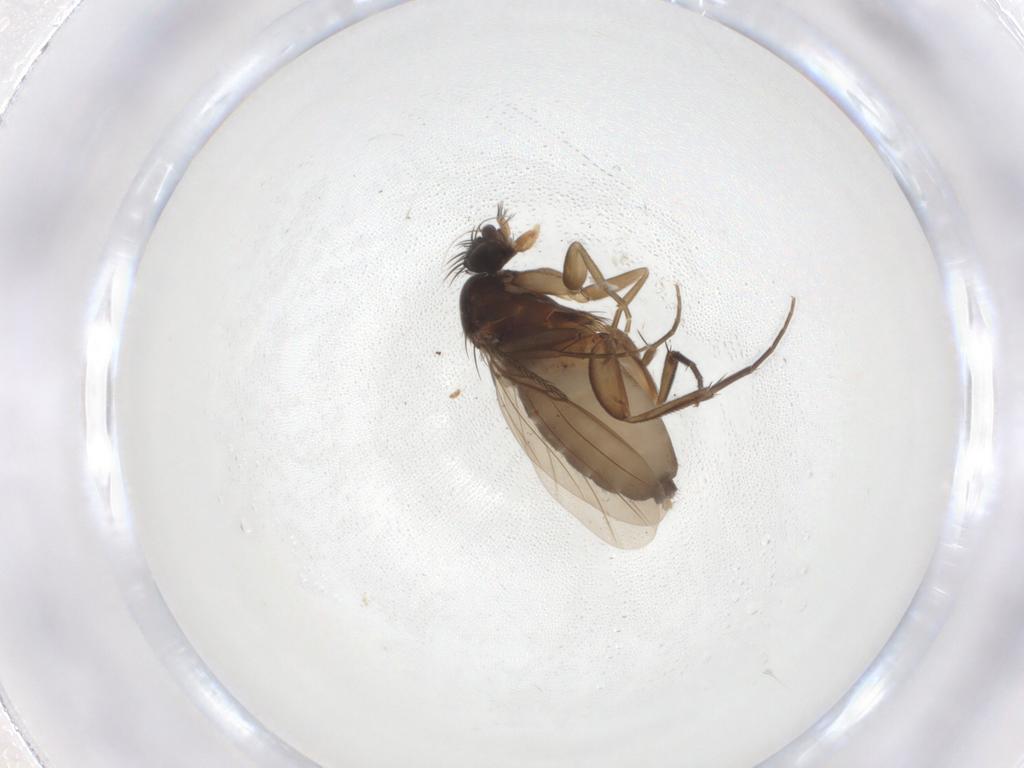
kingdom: Animalia
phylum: Arthropoda
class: Insecta
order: Diptera
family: Phoridae
